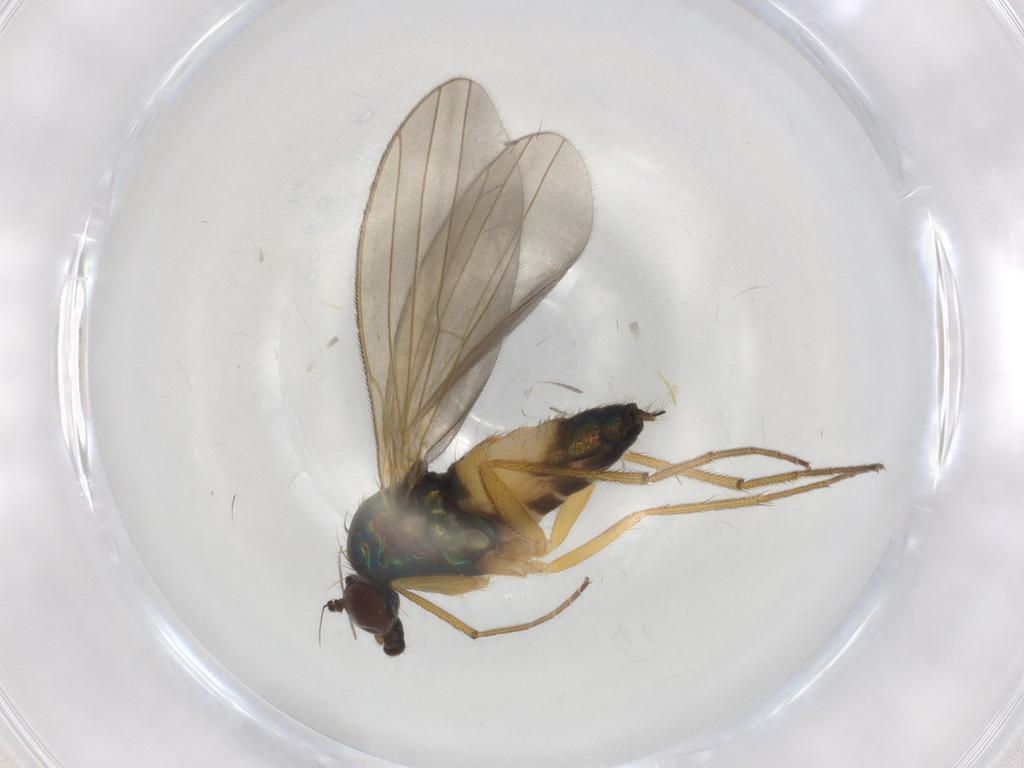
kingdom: Animalia
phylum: Arthropoda
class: Insecta
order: Diptera
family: Dolichopodidae
